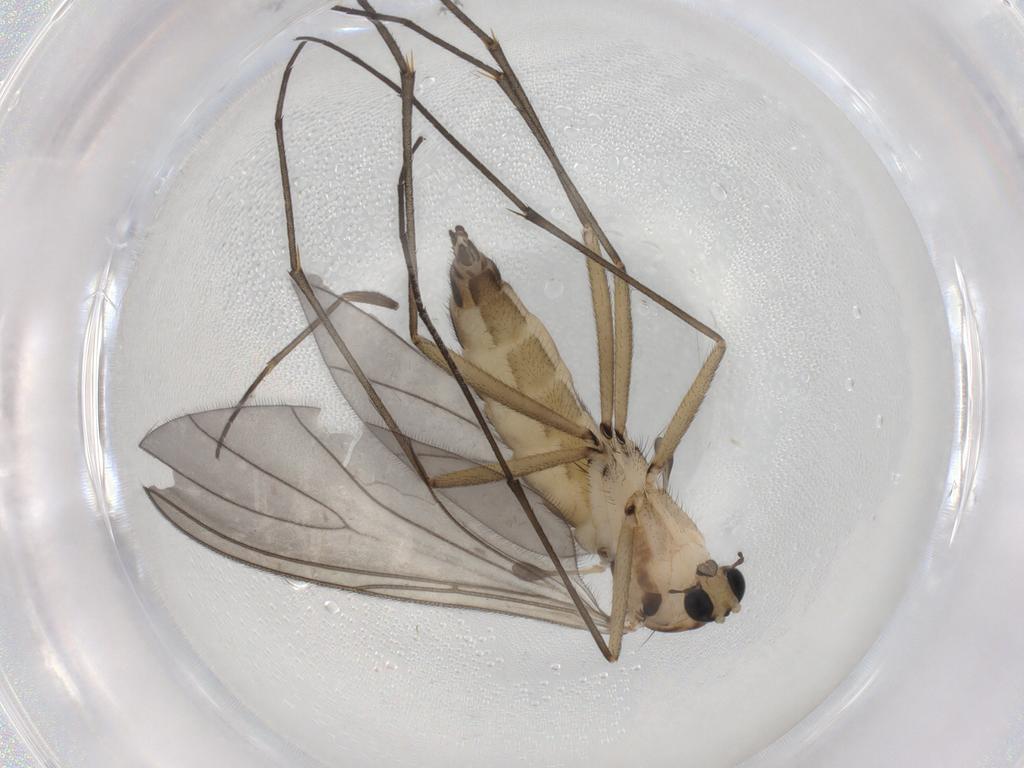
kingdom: Animalia
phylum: Arthropoda
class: Insecta
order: Diptera
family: Sciaridae
